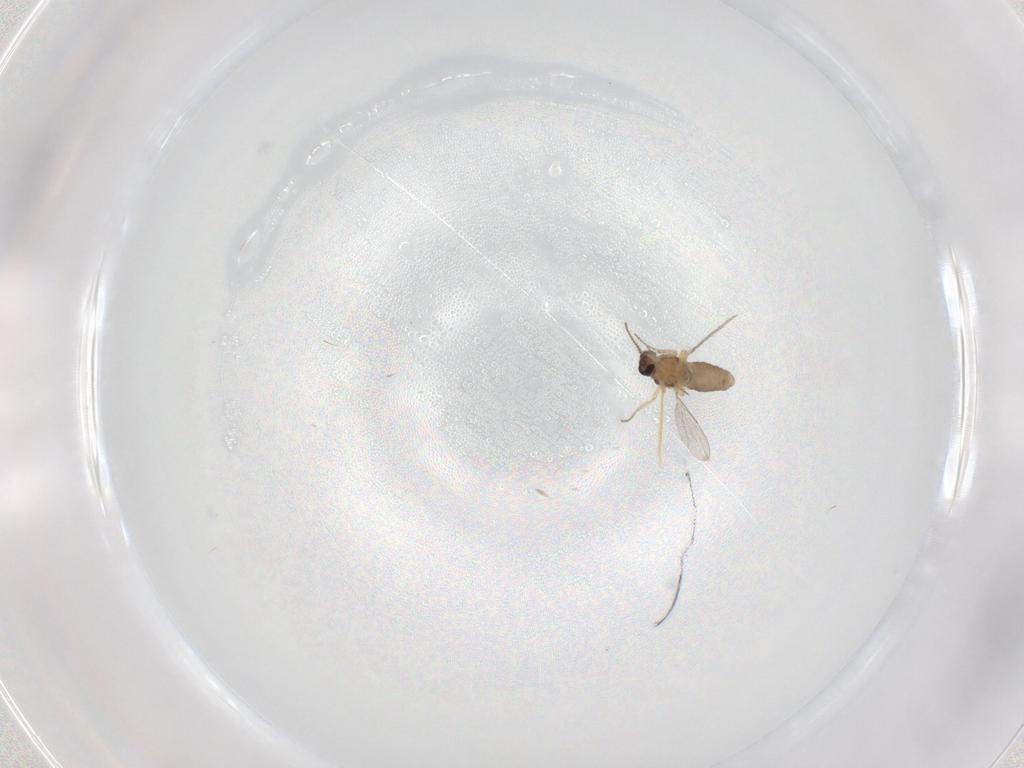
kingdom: Animalia
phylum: Arthropoda
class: Insecta
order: Diptera
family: Ceratopogonidae
